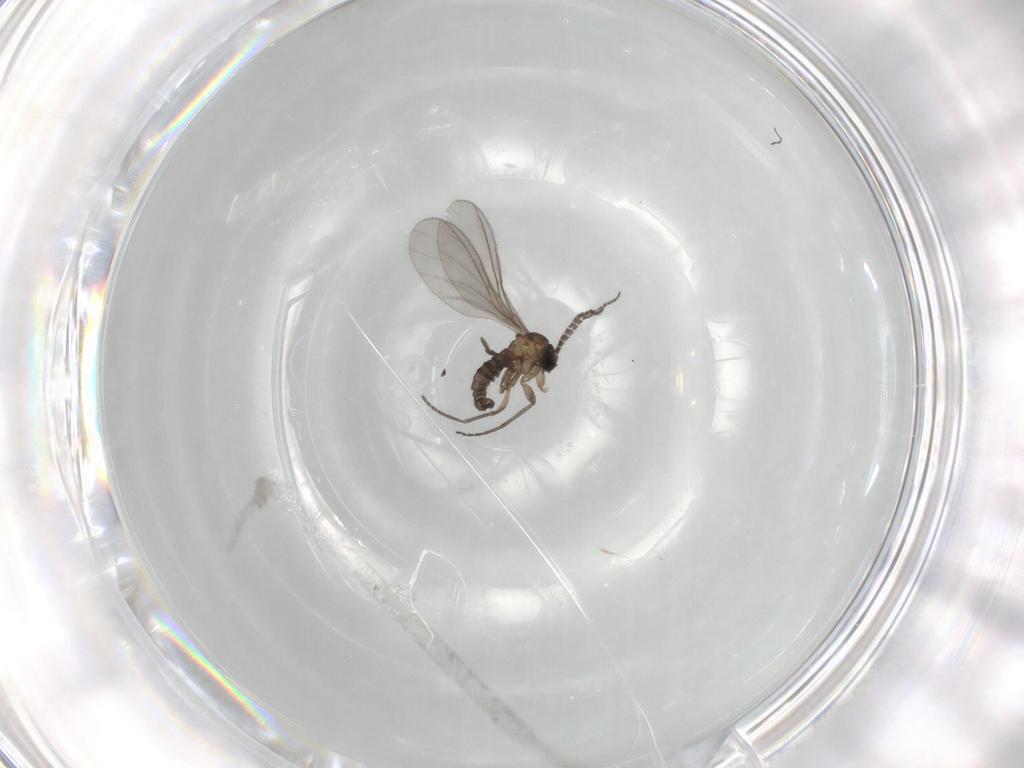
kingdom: Animalia
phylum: Arthropoda
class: Insecta
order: Diptera
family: Sciaridae
